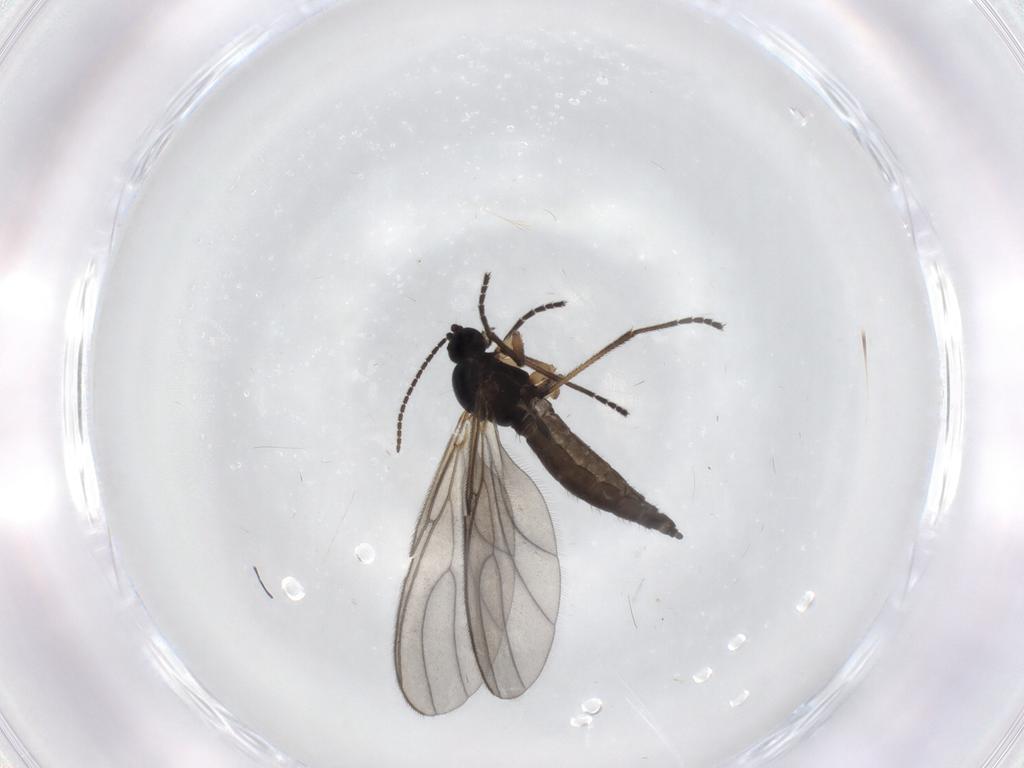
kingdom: Animalia
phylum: Arthropoda
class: Insecta
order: Diptera
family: Sciaridae
